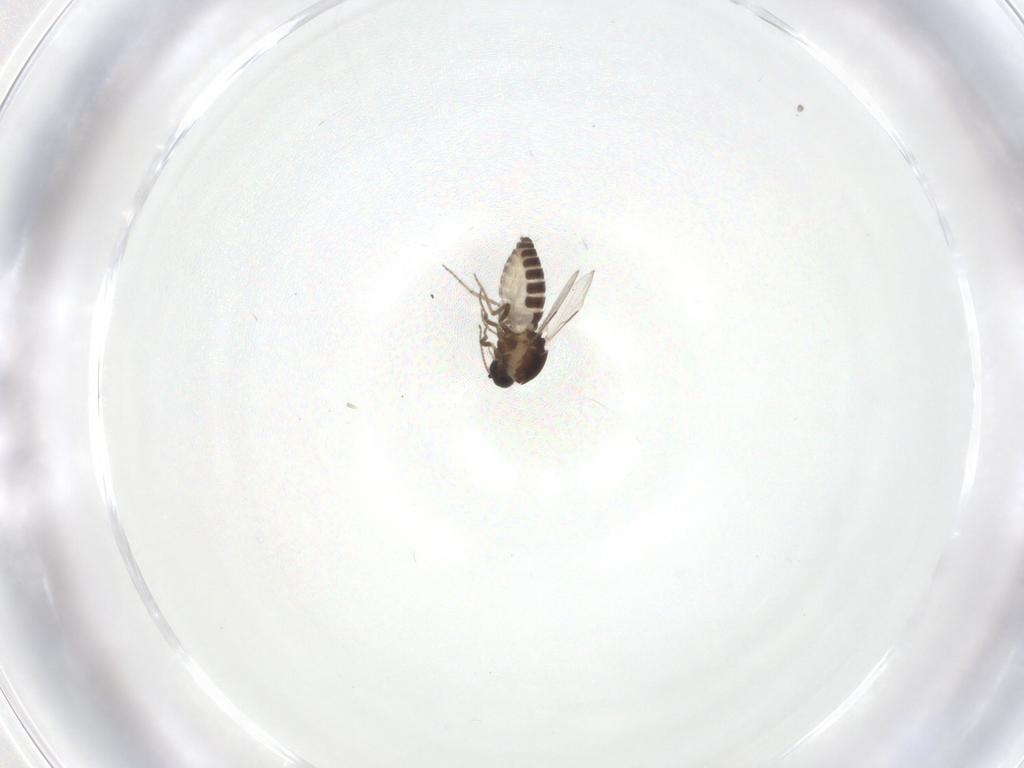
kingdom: Animalia
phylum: Arthropoda
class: Insecta
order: Diptera
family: Ceratopogonidae
